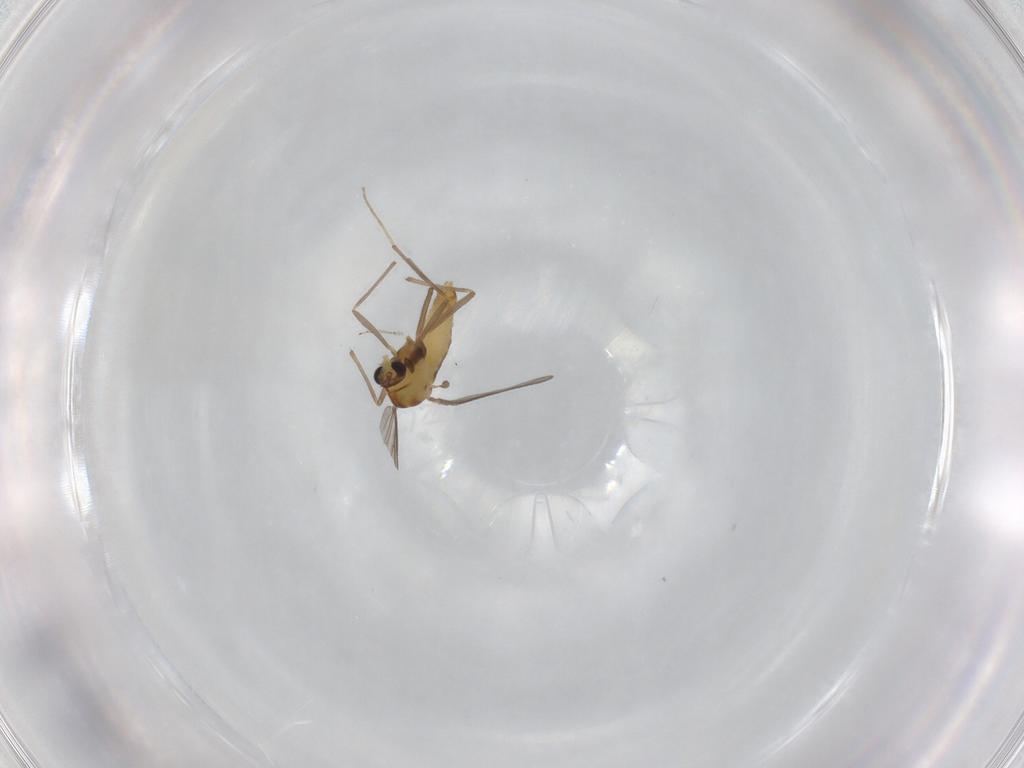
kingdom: Animalia
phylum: Arthropoda
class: Insecta
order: Diptera
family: Chironomidae
